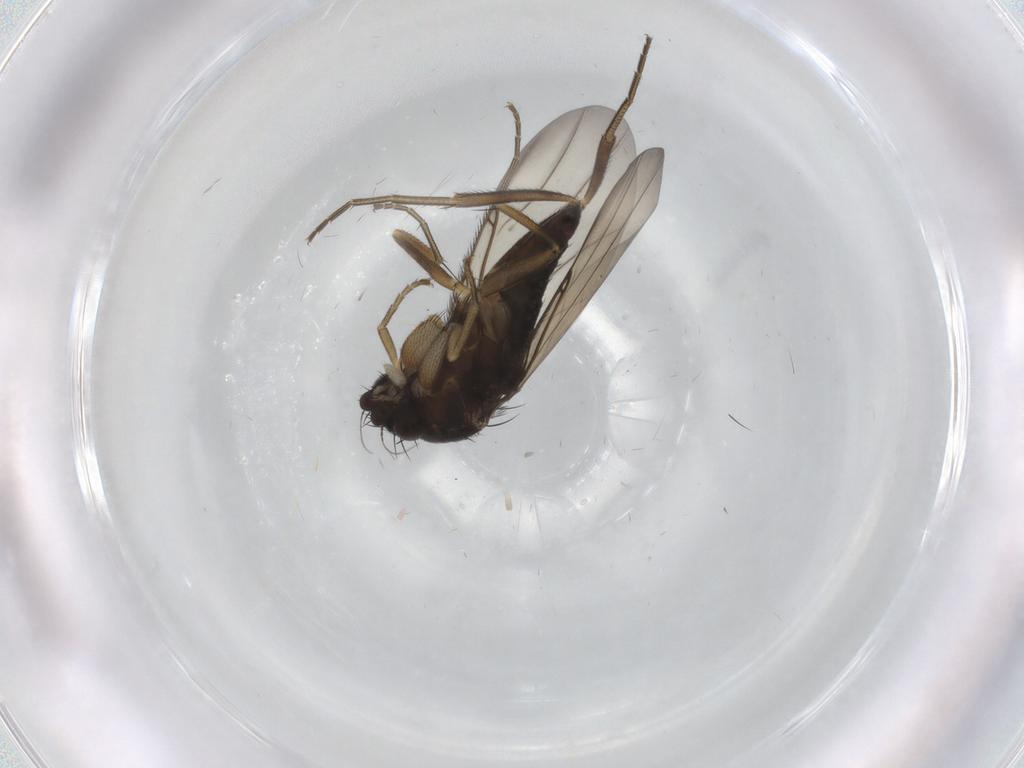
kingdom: Animalia
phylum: Arthropoda
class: Insecta
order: Diptera
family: Phoridae
